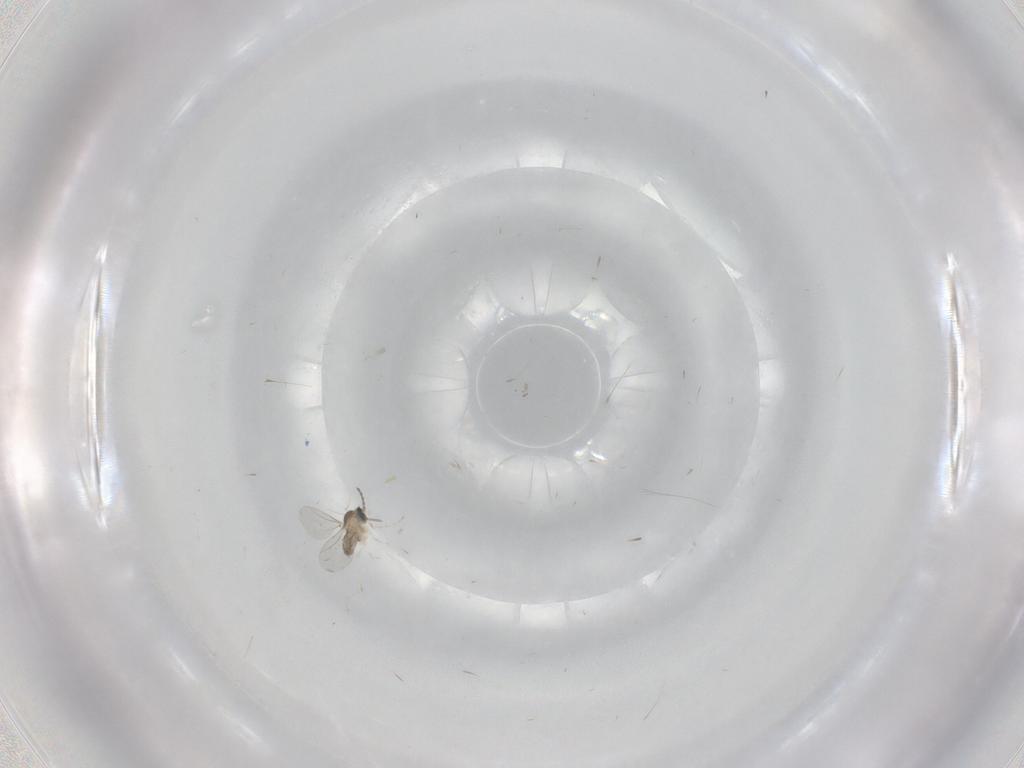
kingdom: Animalia
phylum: Arthropoda
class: Insecta
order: Diptera
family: Cecidomyiidae
